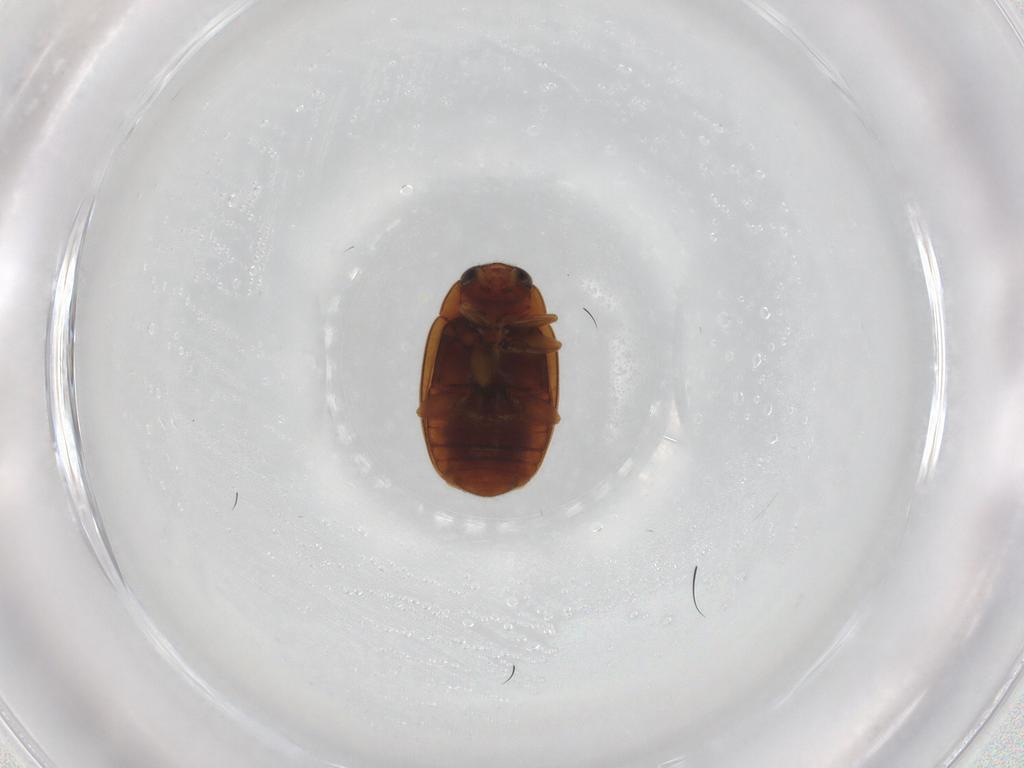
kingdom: Animalia
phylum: Arthropoda
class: Insecta
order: Coleoptera
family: Coccinellidae
